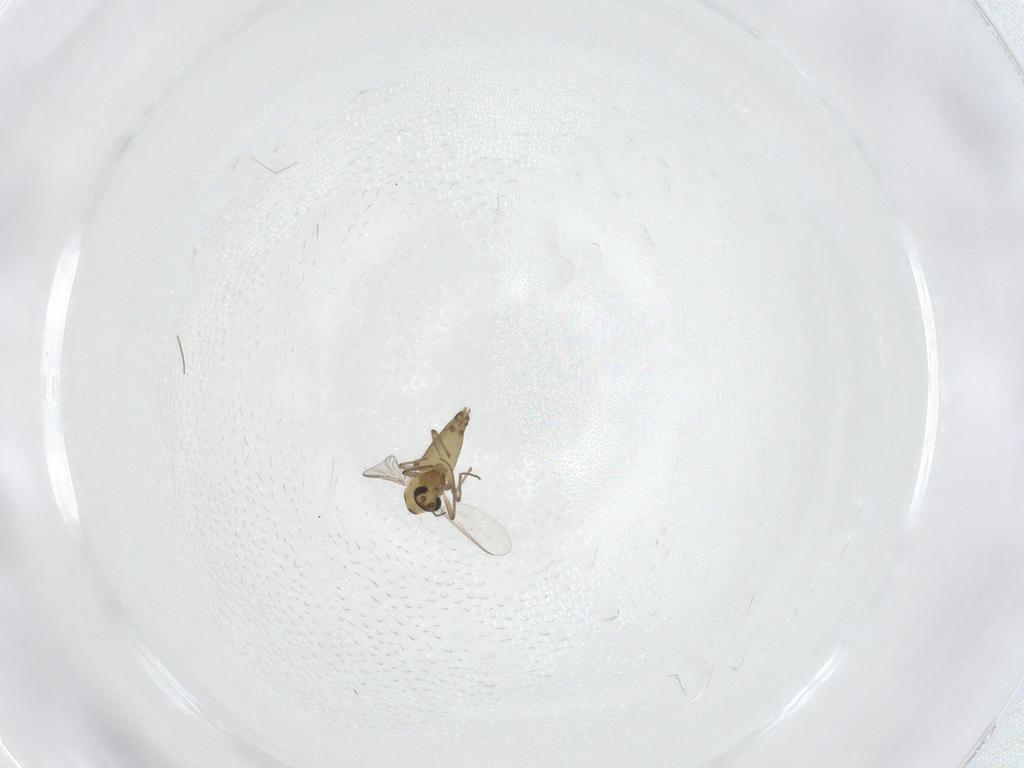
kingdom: Animalia
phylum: Arthropoda
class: Insecta
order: Diptera
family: Chironomidae
